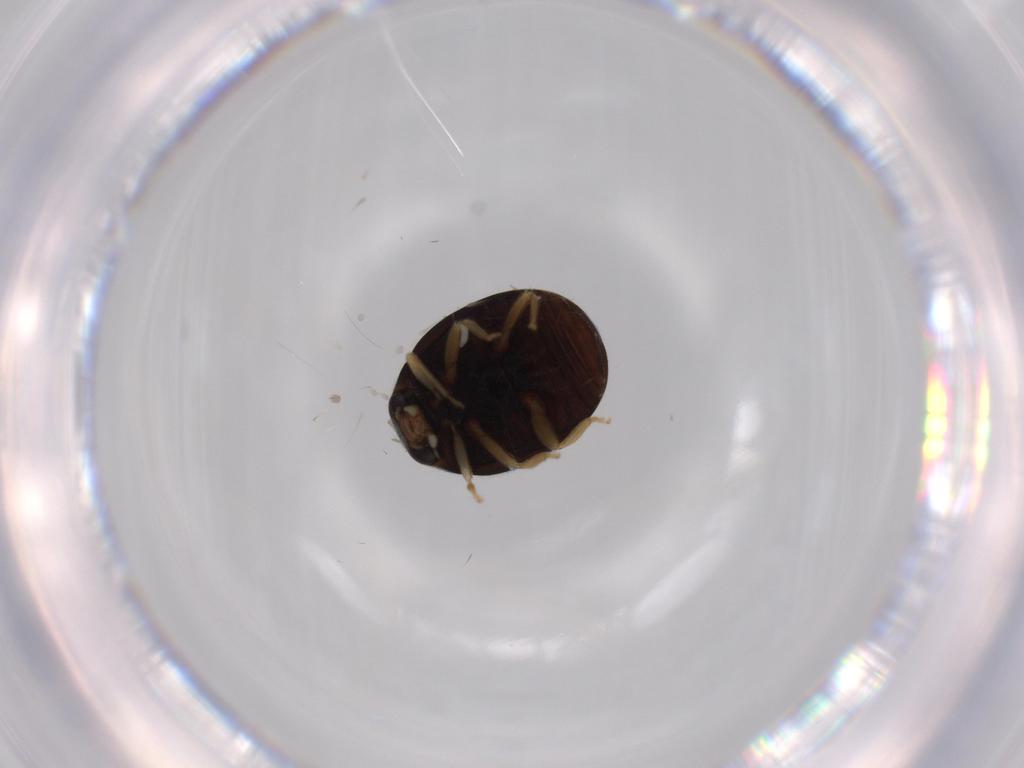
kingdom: Animalia
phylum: Arthropoda
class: Insecta
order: Coleoptera
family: Coccinellidae
